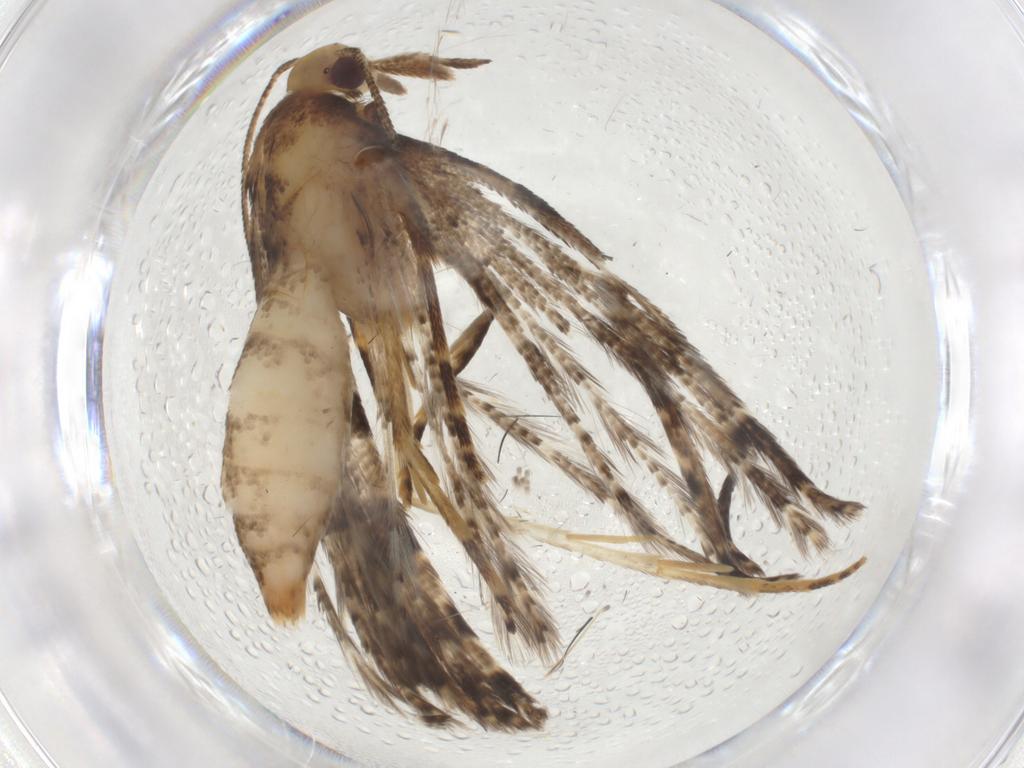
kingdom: Animalia
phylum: Arthropoda
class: Insecta
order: Lepidoptera
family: Alucitidae
